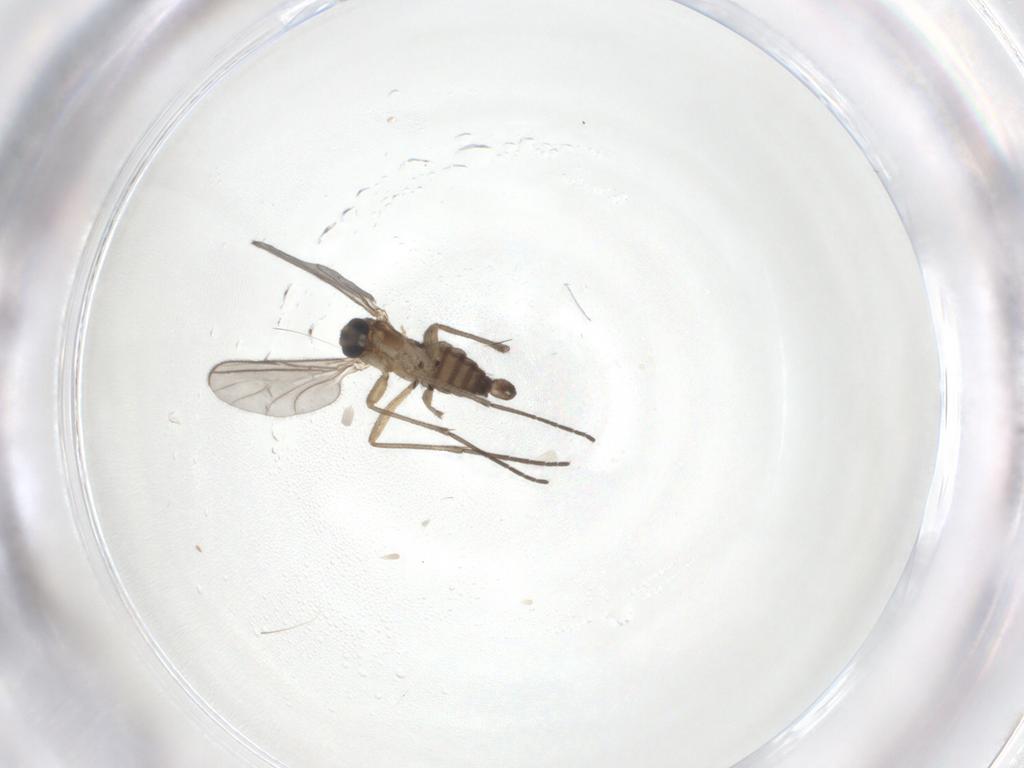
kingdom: Animalia
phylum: Arthropoda
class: Insecta
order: Diptera
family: Sciaridae
